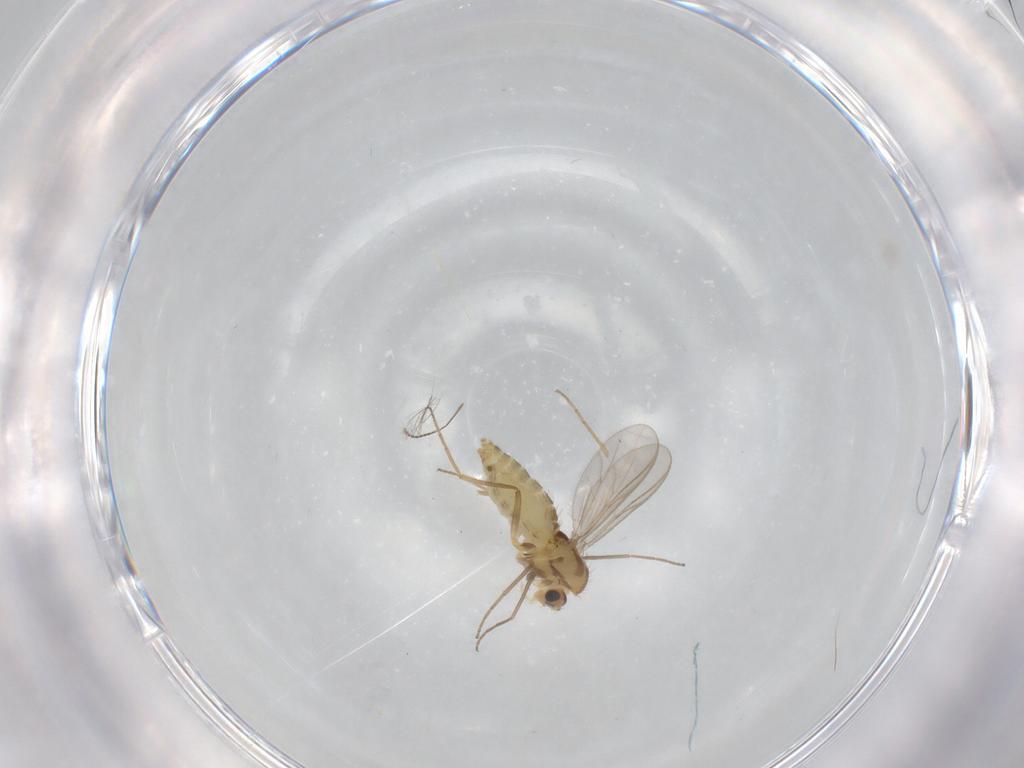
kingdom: Animalia
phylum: Arthropoda
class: Insecta
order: Diptera
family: Chironomidae
